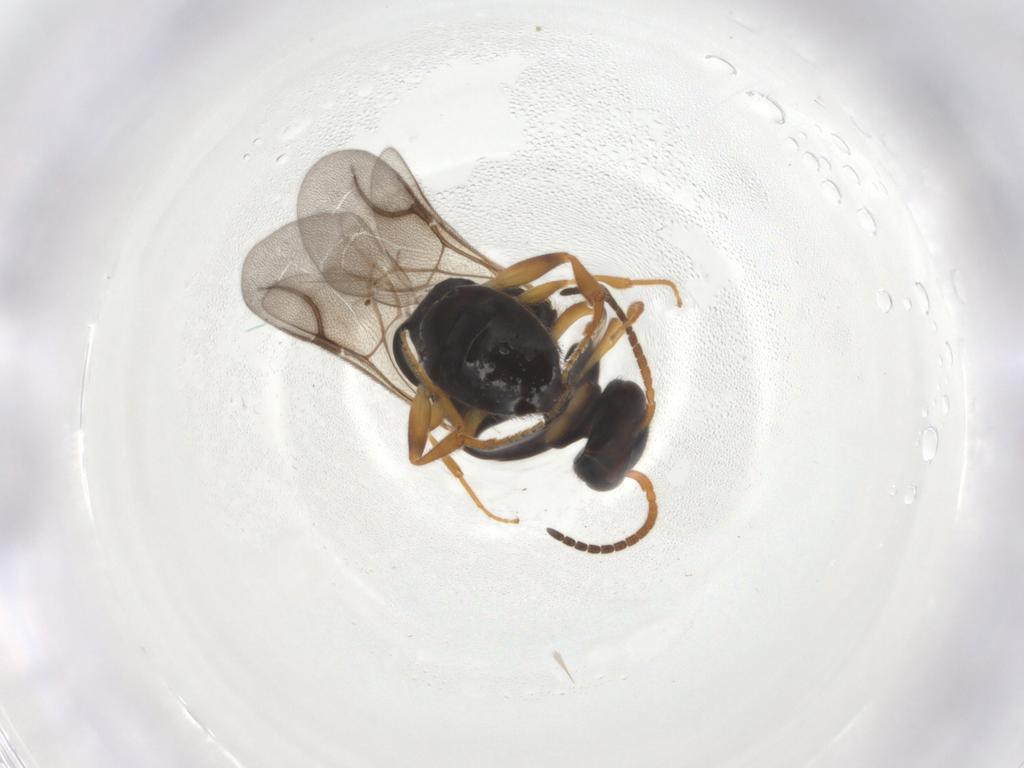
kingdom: Animalia
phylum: Arthropoda
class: Insecta
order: Hymenoptera
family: Bethylidae
